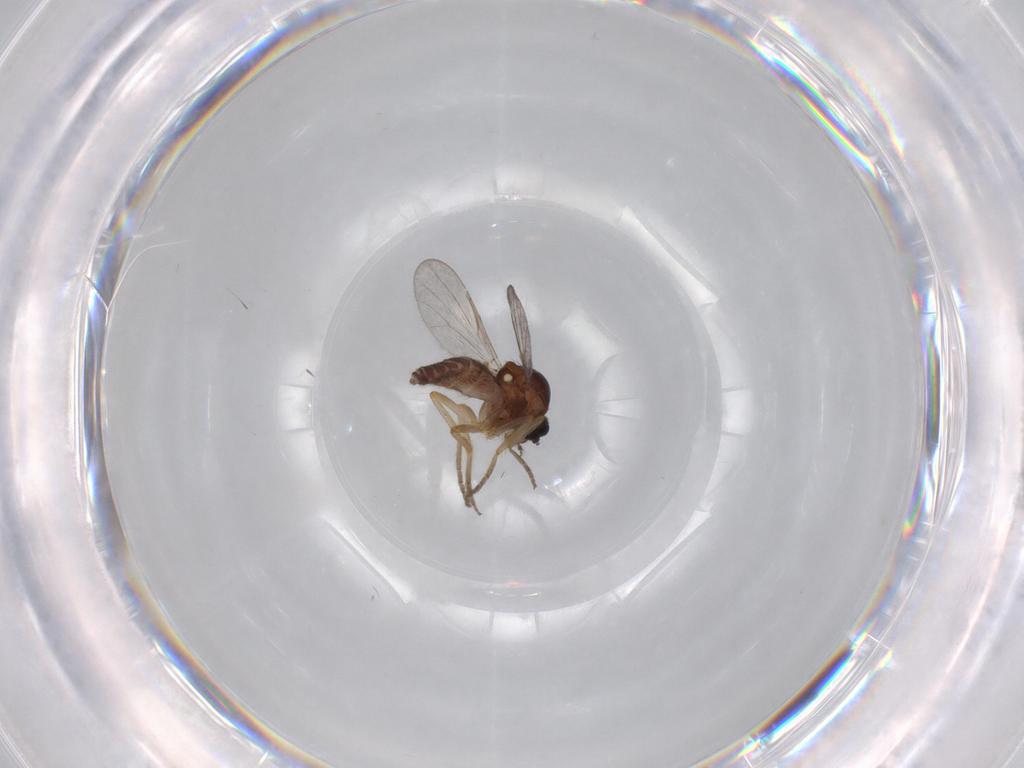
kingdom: Animalia
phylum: Arthropoda
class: Insecta
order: Diptera
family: Ceratopogonidae
